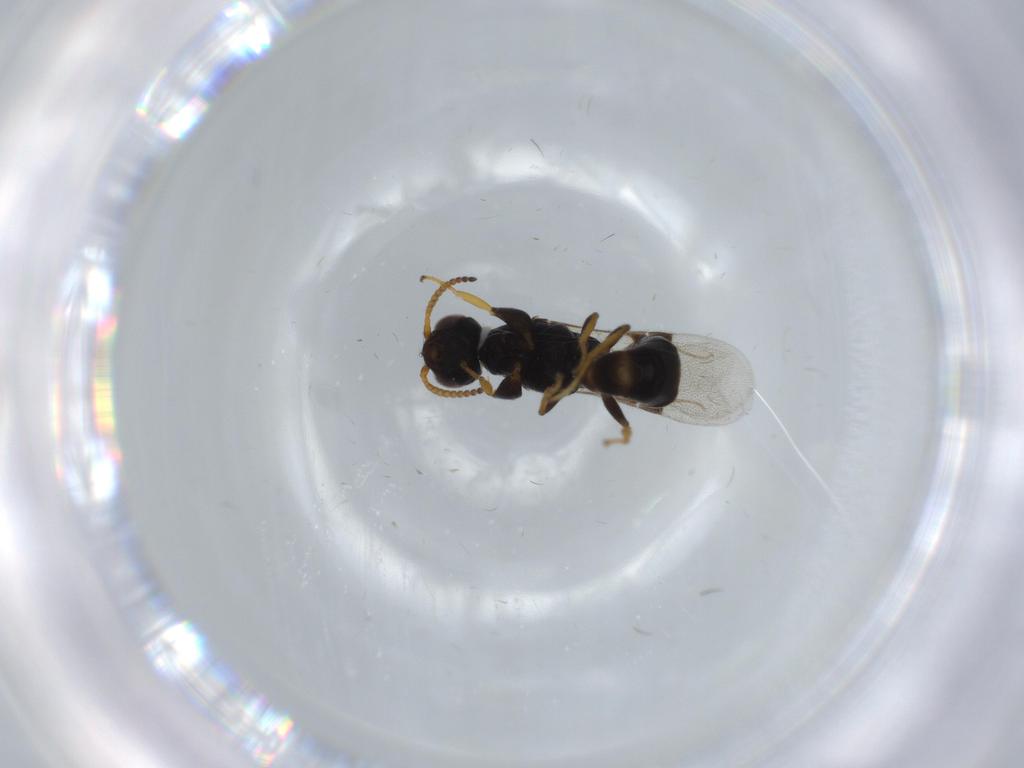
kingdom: Animalia
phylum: Arthropoda
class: Insecta
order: Hymenoptera
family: Bethylidae
